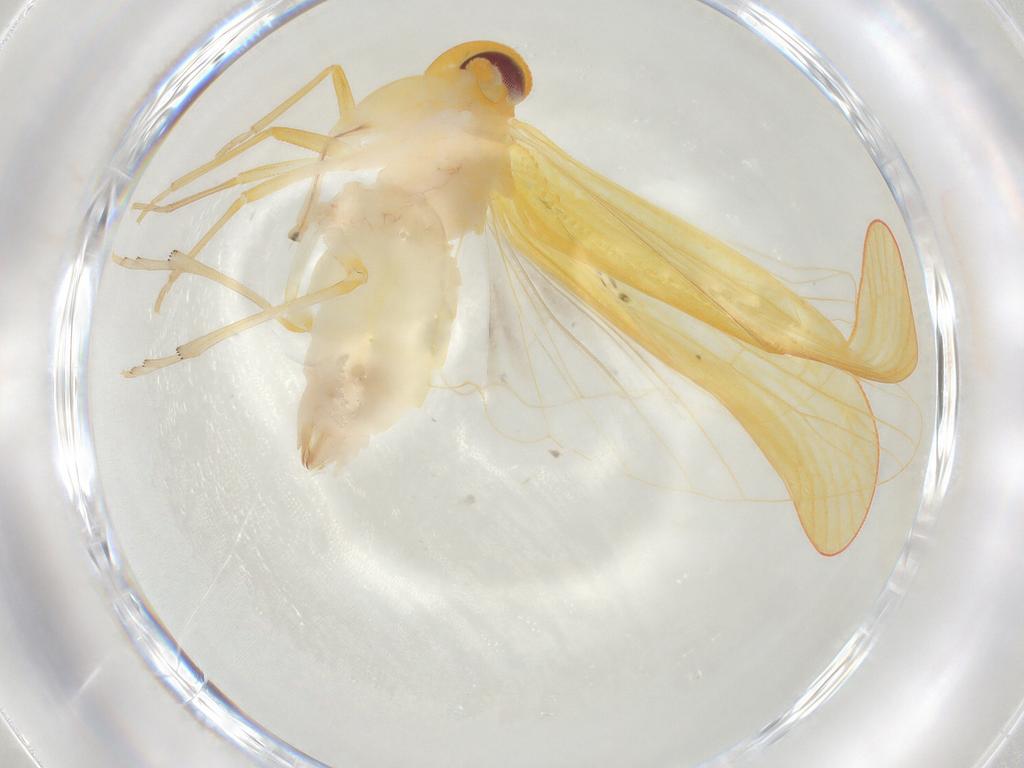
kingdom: Animalia
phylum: Arthropoda
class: Insecta
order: Hemiptera
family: Derbidae
